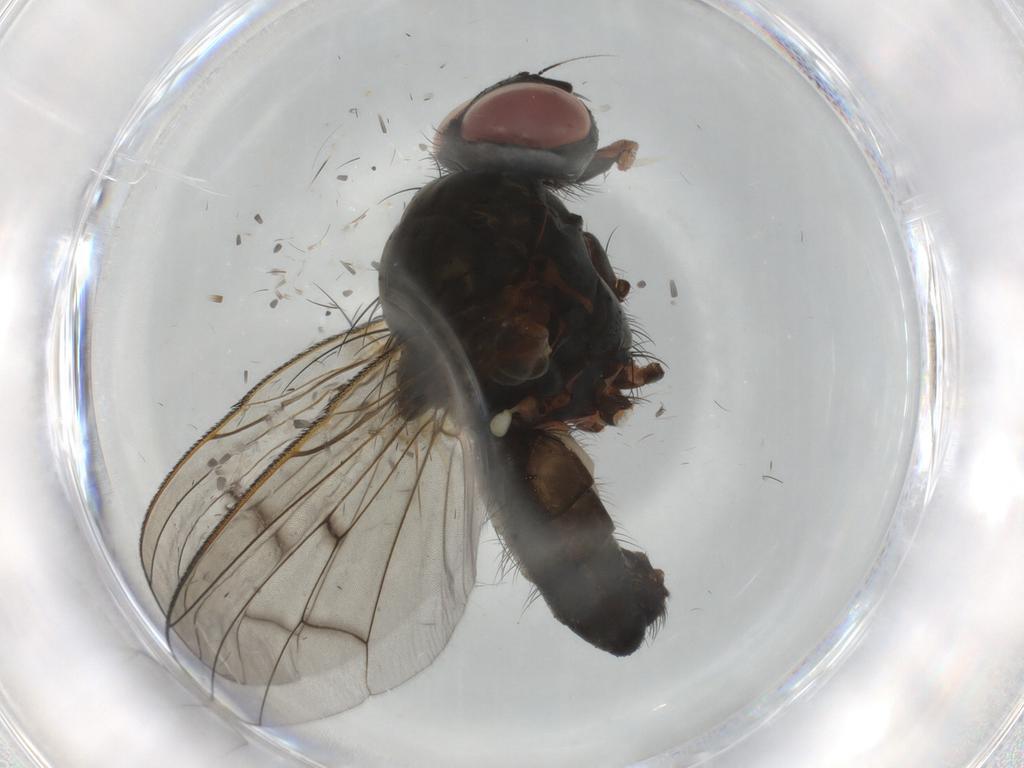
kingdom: Animalia
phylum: Arthropoda
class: Insecta
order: Diptera
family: Anthomyiidae
